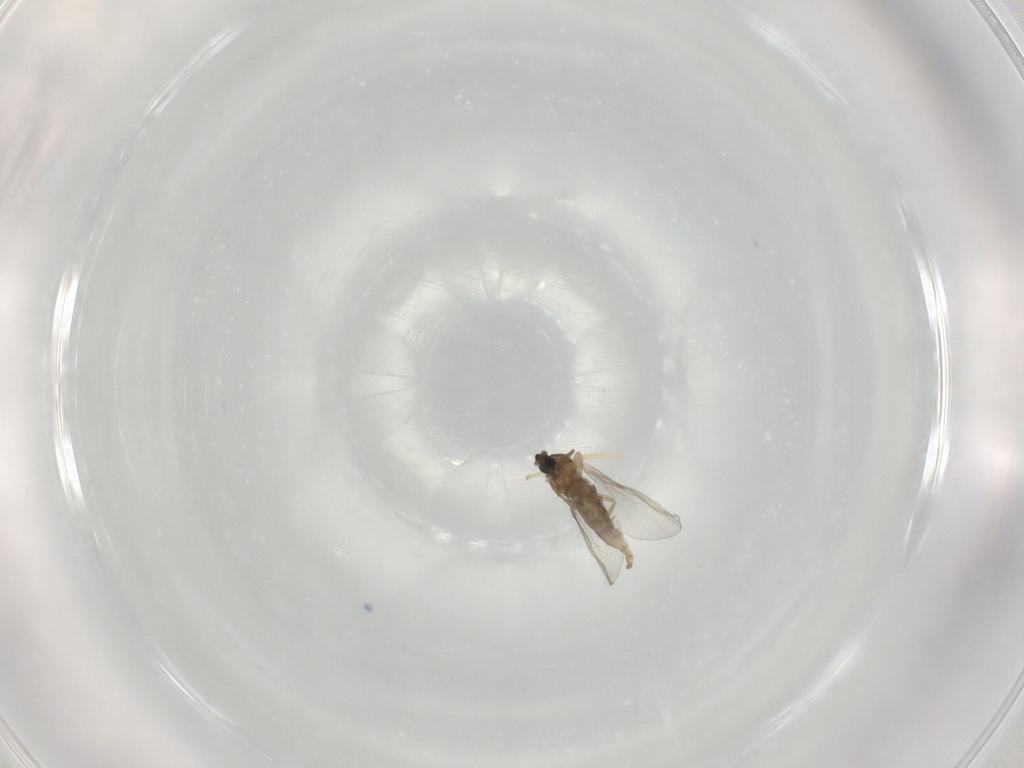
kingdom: Animalia
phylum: Arthropoda
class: Insecta
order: Diptera
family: Cecidomyiidae
